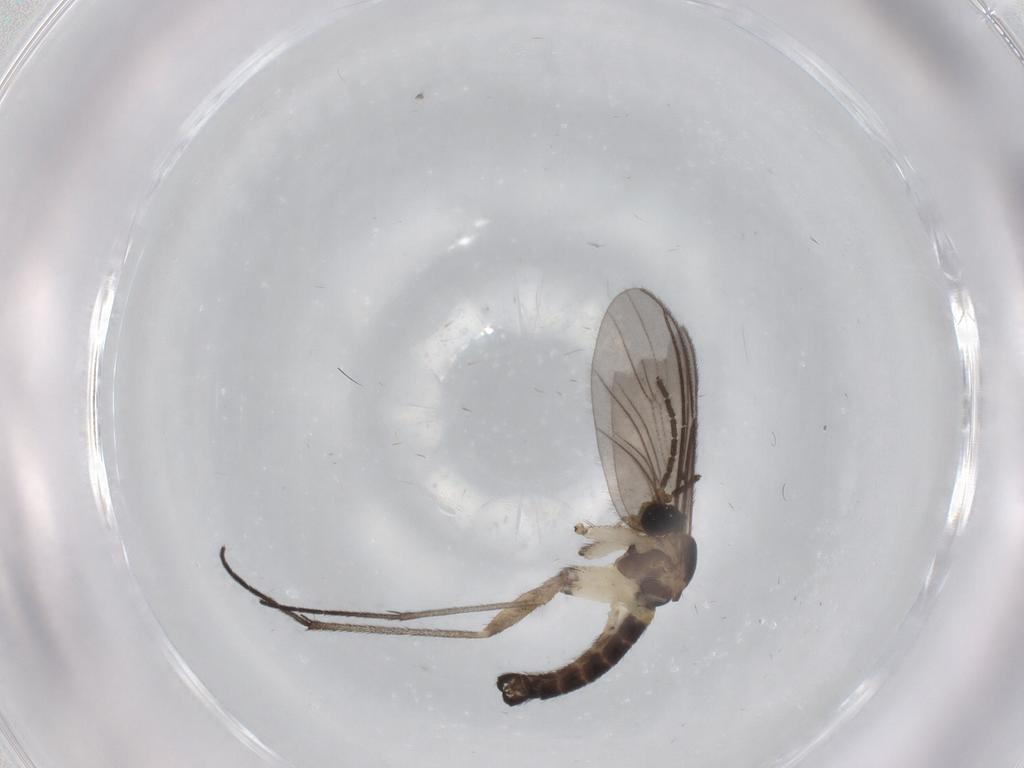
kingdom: Animalia
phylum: Arthropoda
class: Insecta
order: Diptera
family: Sciaridae
